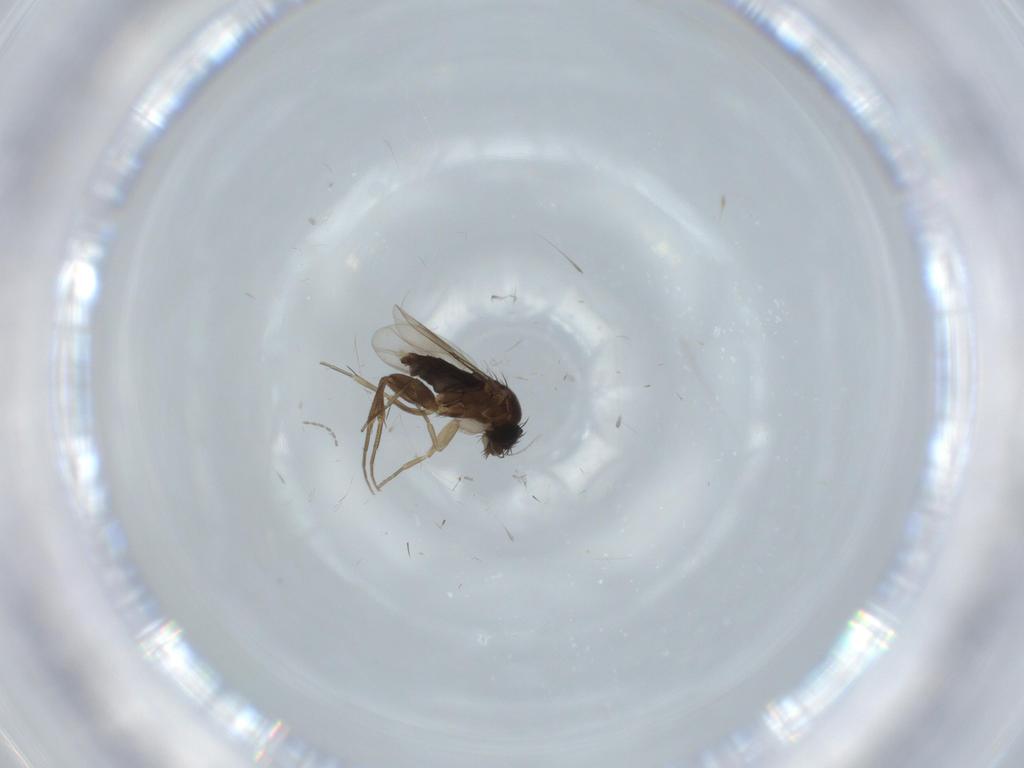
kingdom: Animalia
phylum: Arthropoda
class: Insecta
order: Diptera
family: Phoridae
